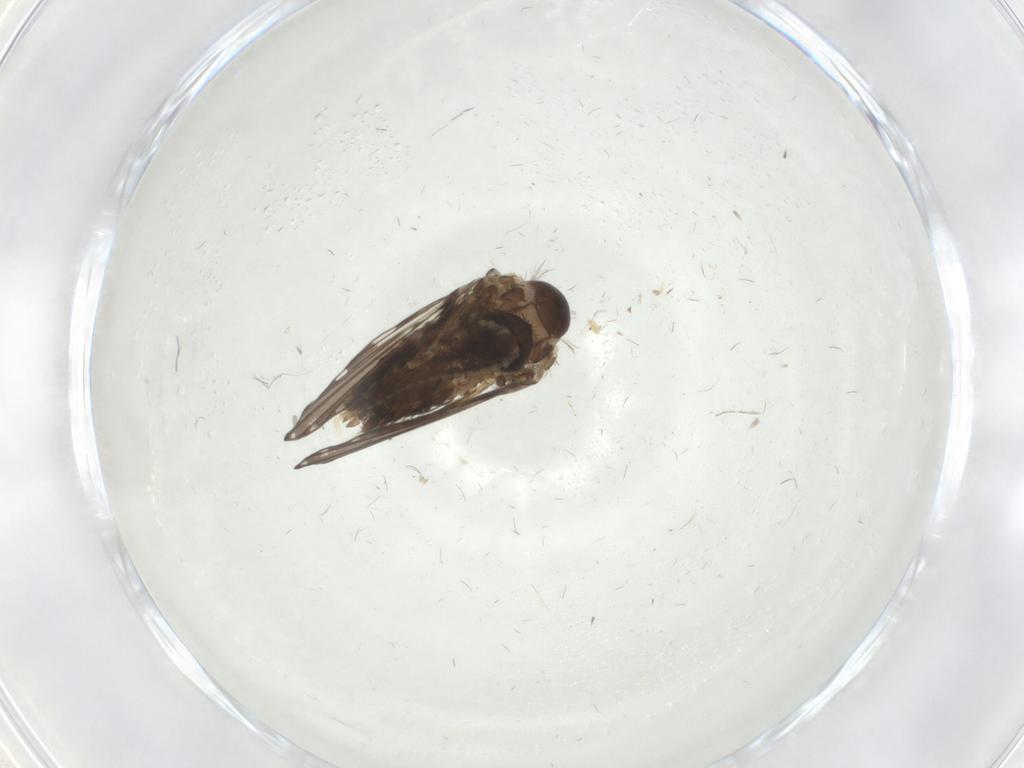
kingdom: Animalia
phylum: Arthropoda
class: Insecta
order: Diptera
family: Psychodidae
